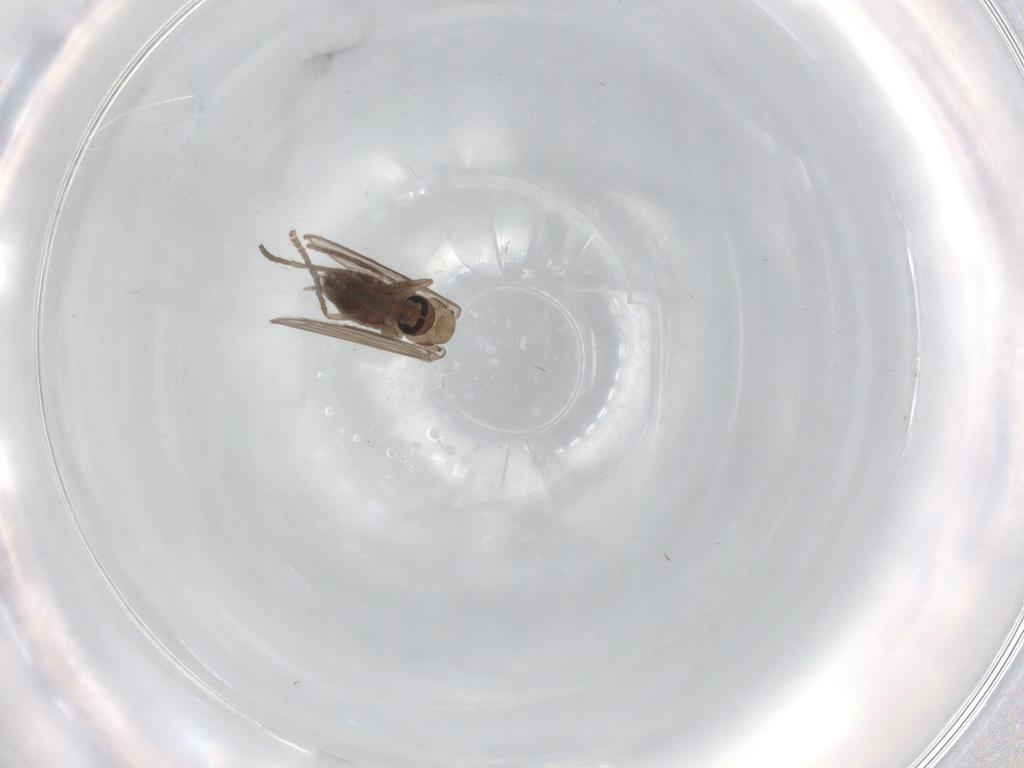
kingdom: Animalia
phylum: Arthropoda
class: Insecta
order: Diptera
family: Psychodidae
